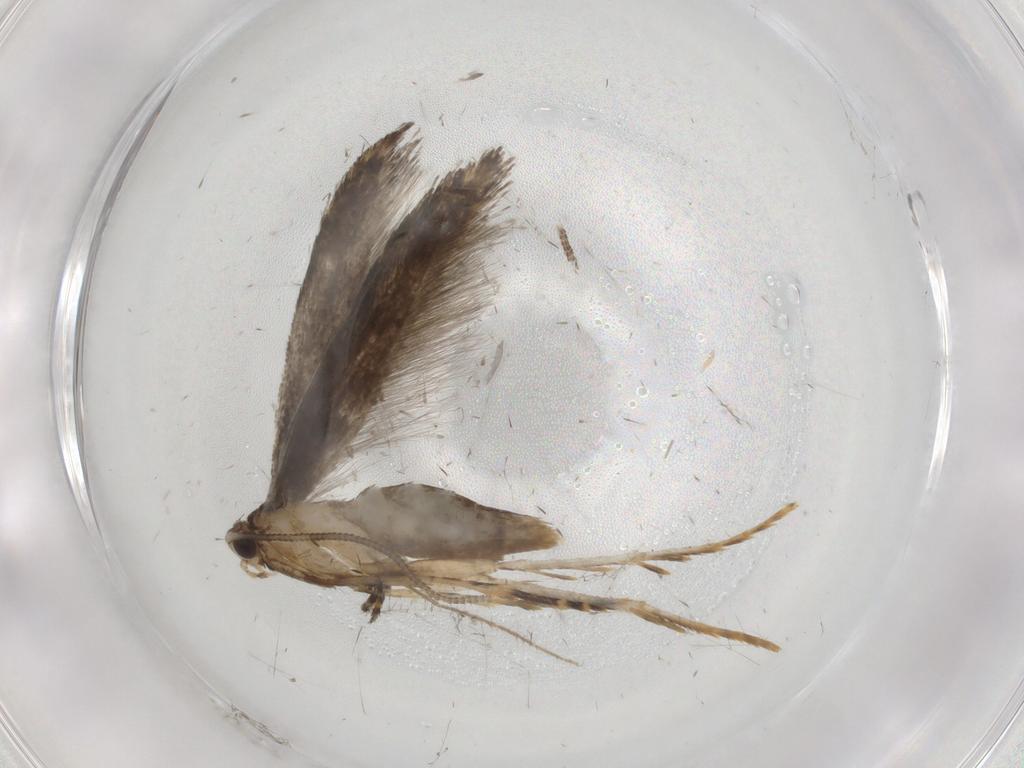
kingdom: Animalia
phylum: Arthropoda
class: Insecta
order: Lepidoptera
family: Tineidae
